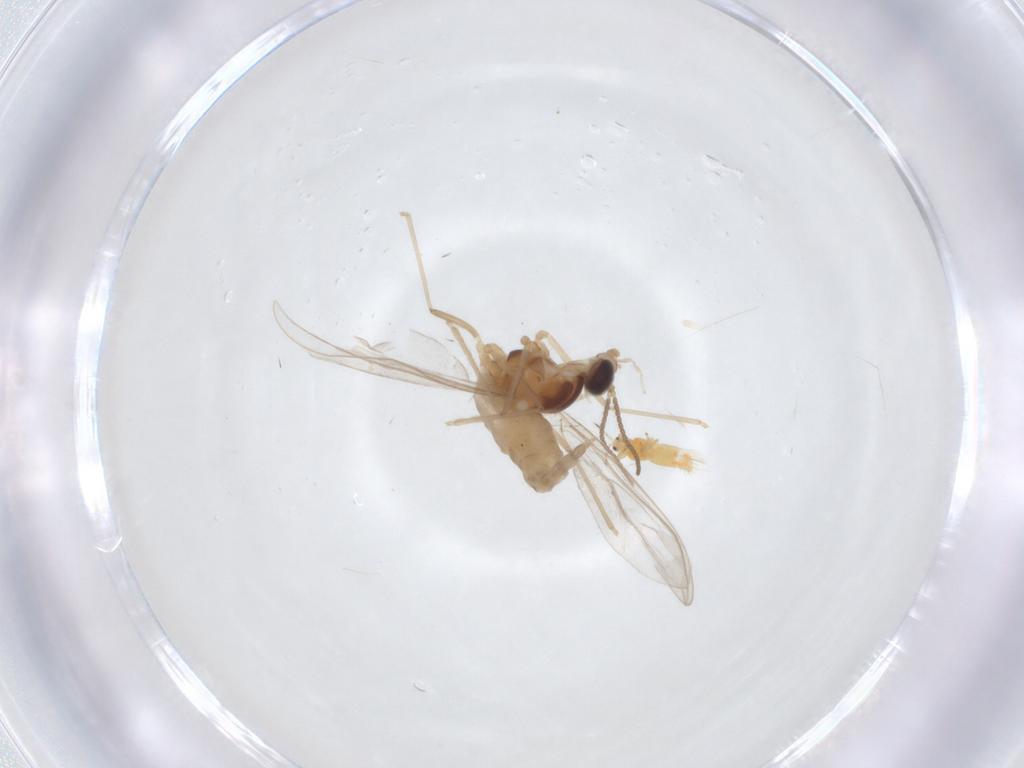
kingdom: Animalia
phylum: Arthropoda
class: Insecta
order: Diptera
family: Cecidomyiidae
